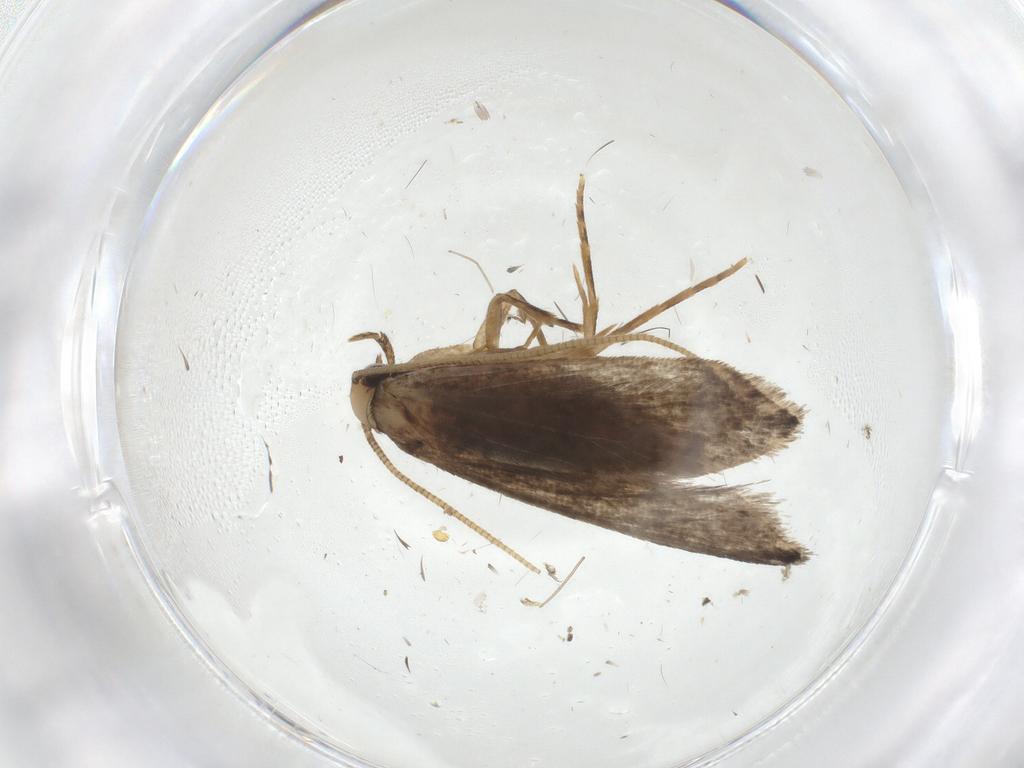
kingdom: Animalia
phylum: Arthropoda
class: Insecta
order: Lepidoptera
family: Tineidae
